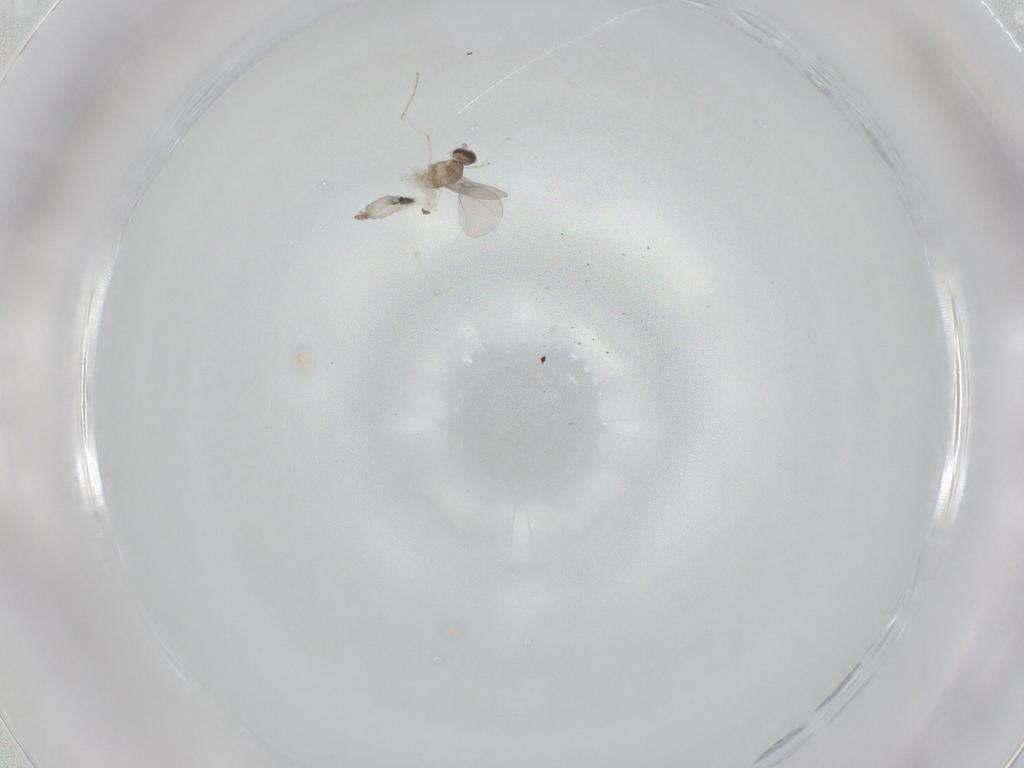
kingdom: Animalia
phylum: Arthropoda
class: Insecta
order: Diptera
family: Cecidomyiidae
